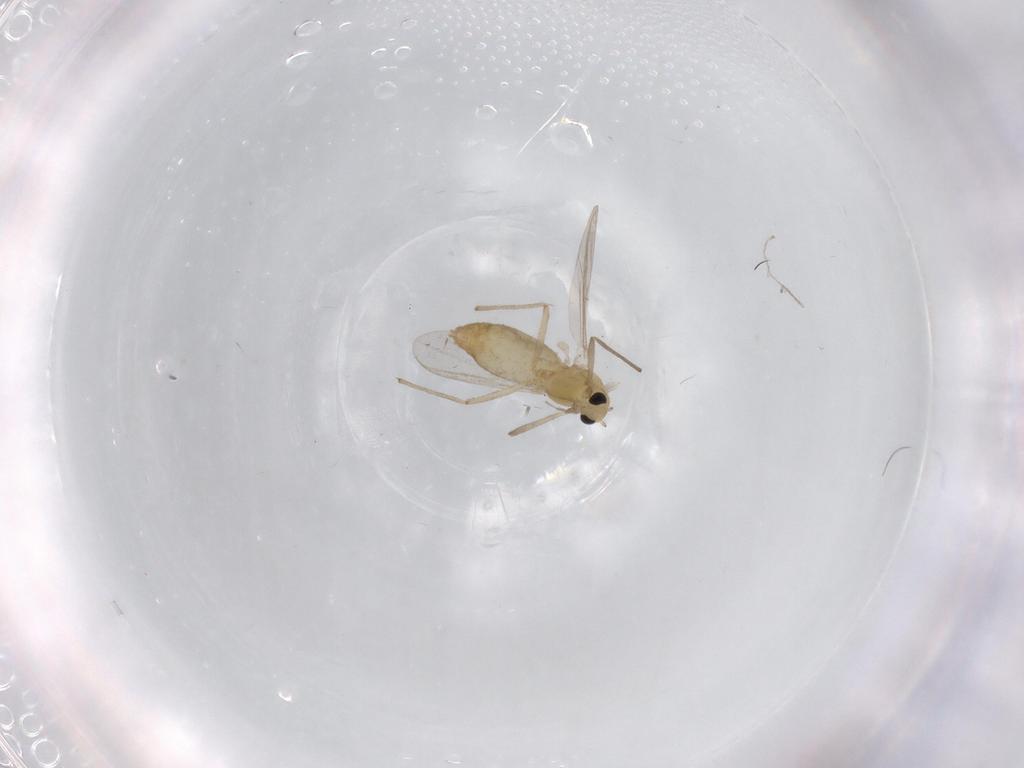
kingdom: Animalia
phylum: Arthropoda
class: Insecta
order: Diptera
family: Chironomidae
